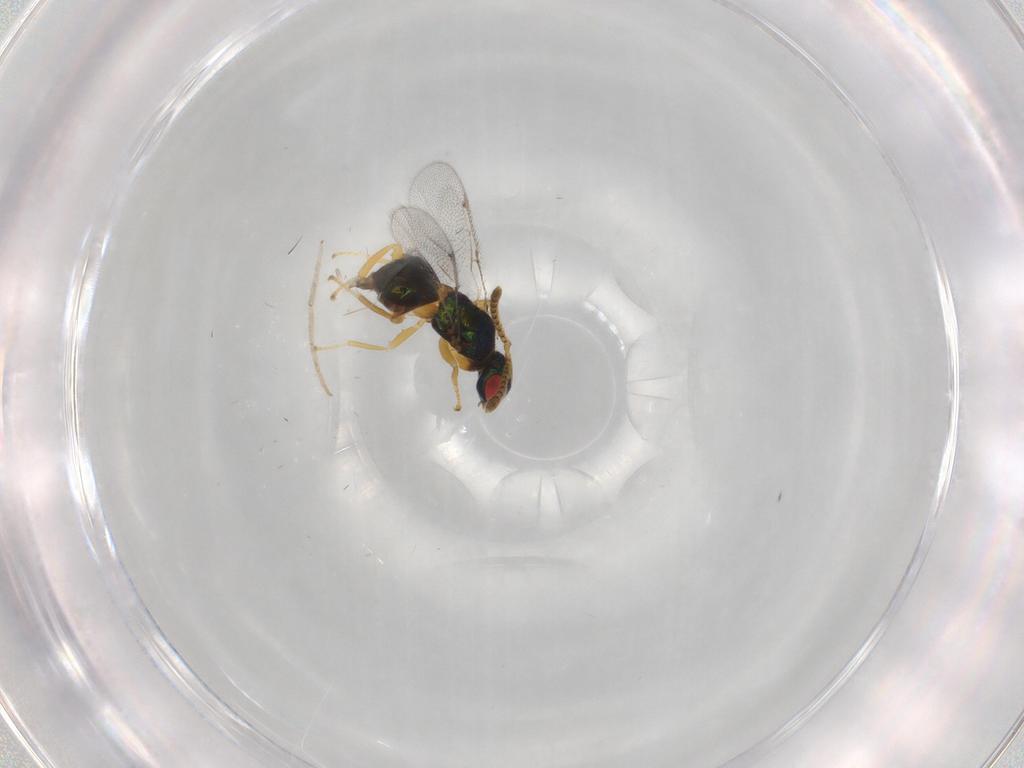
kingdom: Animalia
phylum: Arthropoda
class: Insecta
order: Hymenoptera
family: Torymidae
